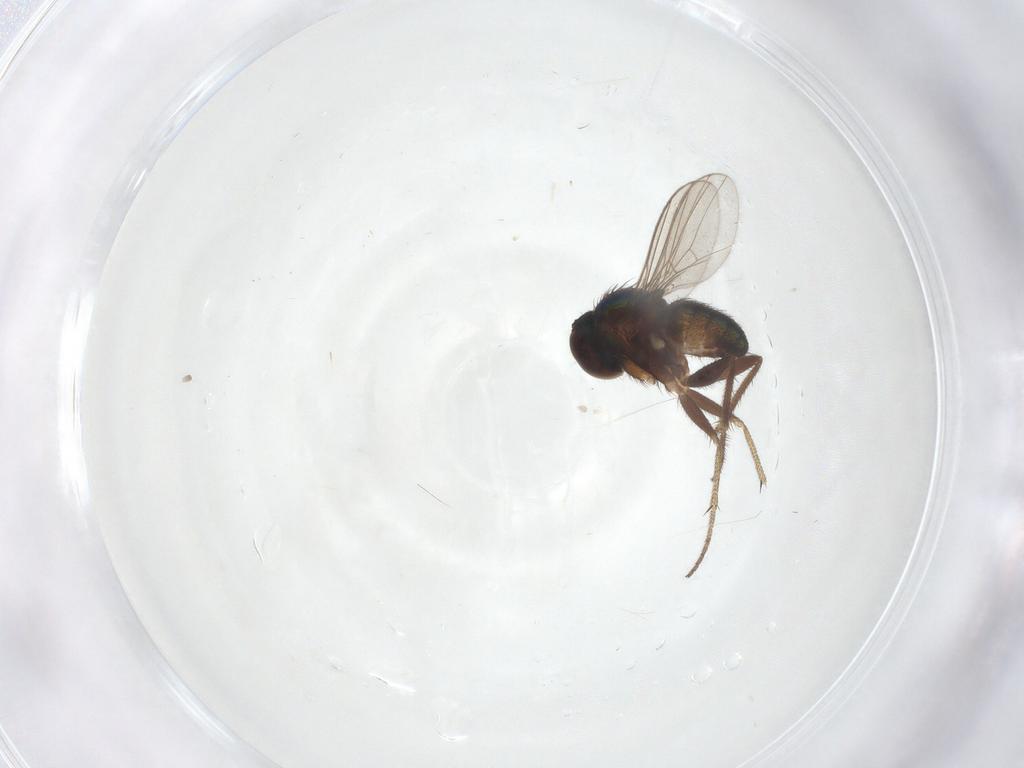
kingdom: Animalia
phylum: Arthropoda
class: Insecta
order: Diptera
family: Dolichopodidae
